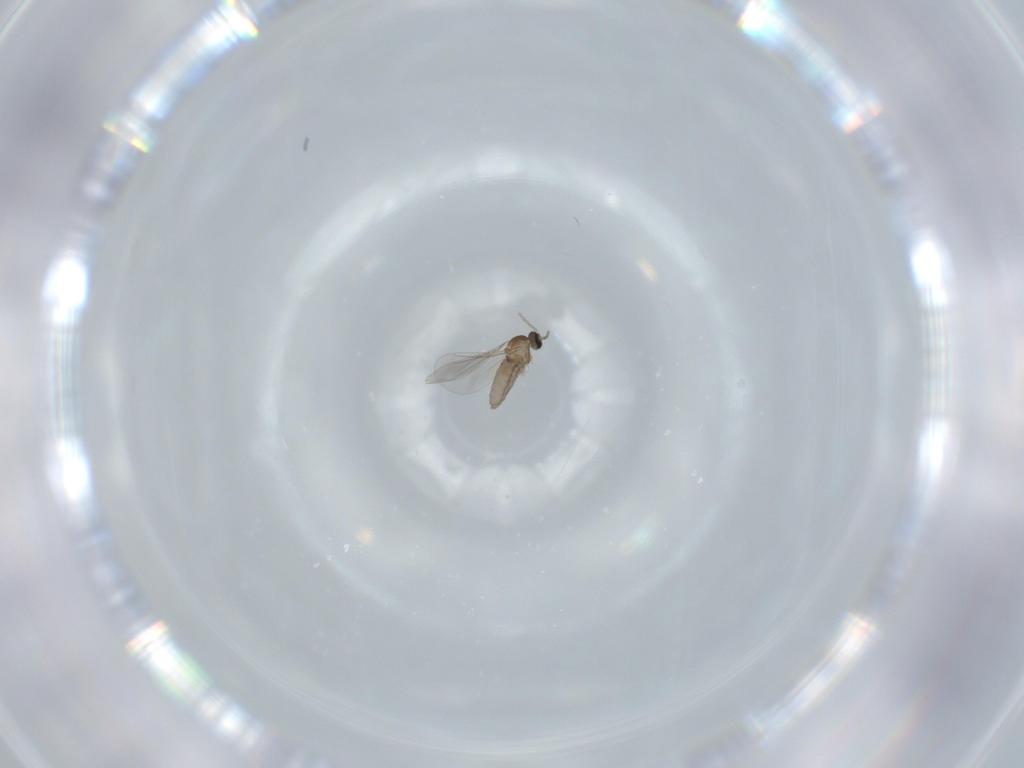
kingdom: Animalia
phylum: Arthropoda
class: Insecta
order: Diptera
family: Cecidomyiidae
